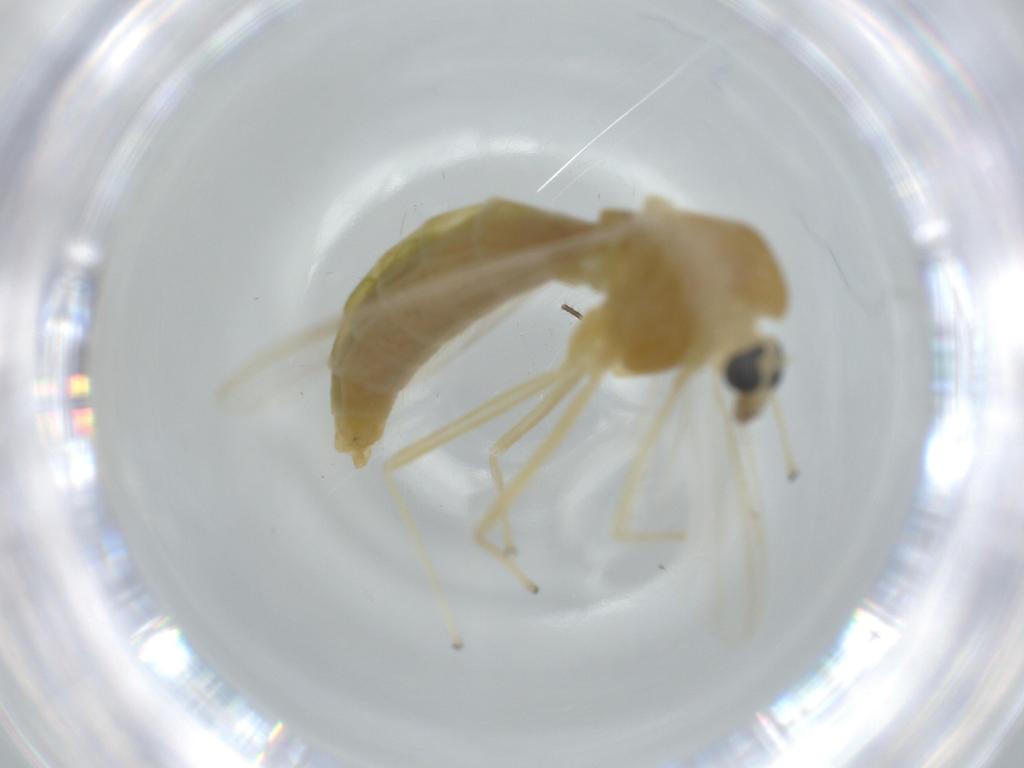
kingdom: Animalia
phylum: Arthropoda
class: Insecta
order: Diptera
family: Chironomidae
